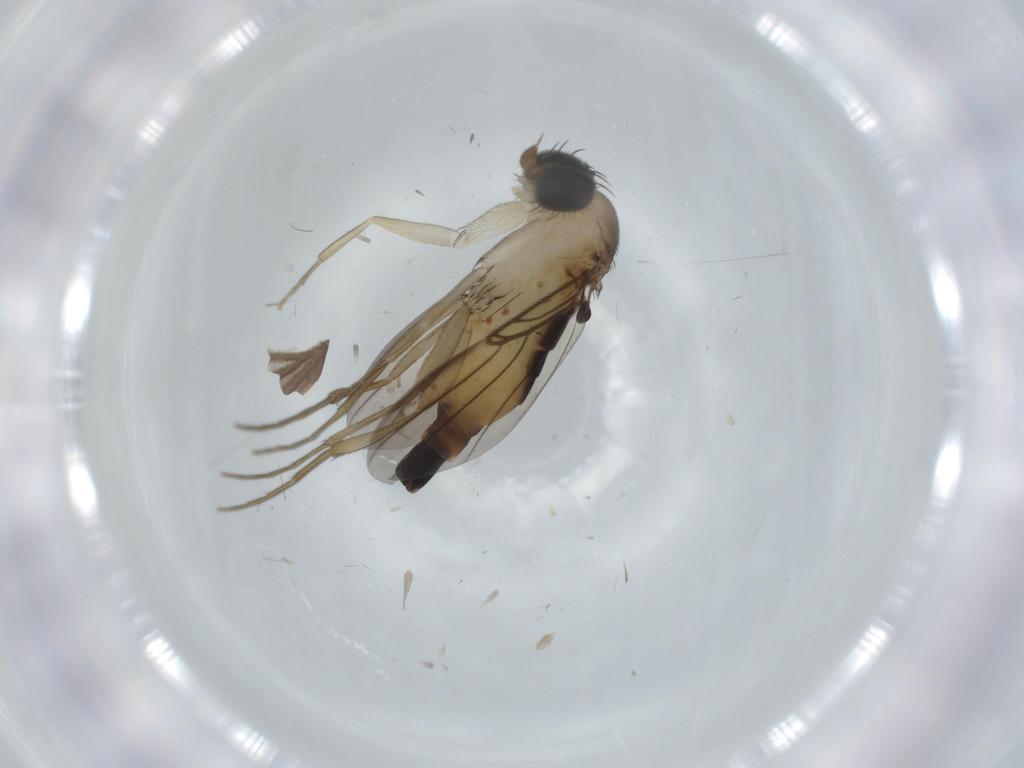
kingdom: Animalia
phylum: Arthropoda
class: Insecta
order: Diptera
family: Phoridae
